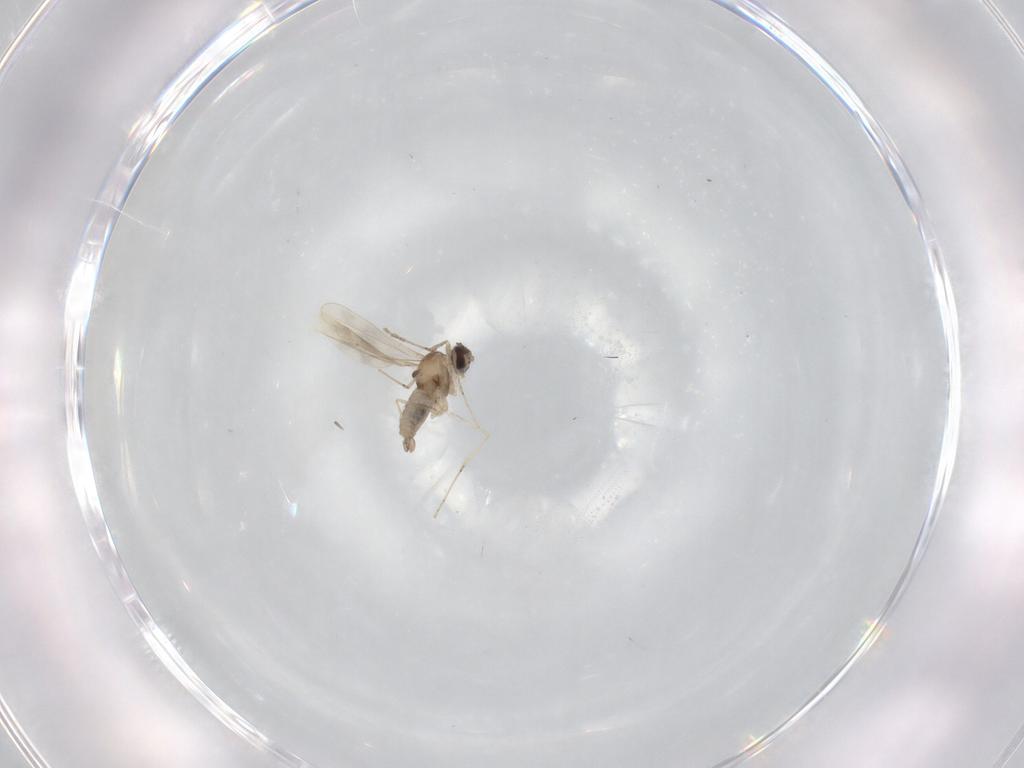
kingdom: Animalia
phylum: Arthropoda
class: Insecta
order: Diptera
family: Cecidomyiidae
